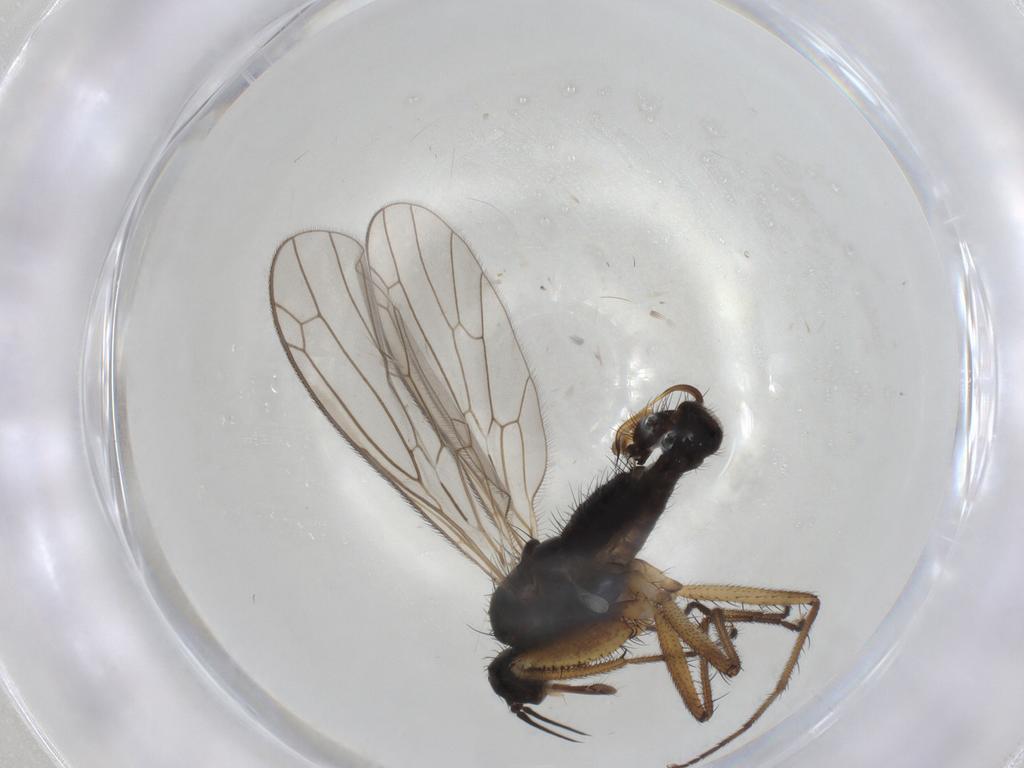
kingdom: Animalia
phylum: Arthropoda
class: Insecta
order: Diptera
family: Empididae
